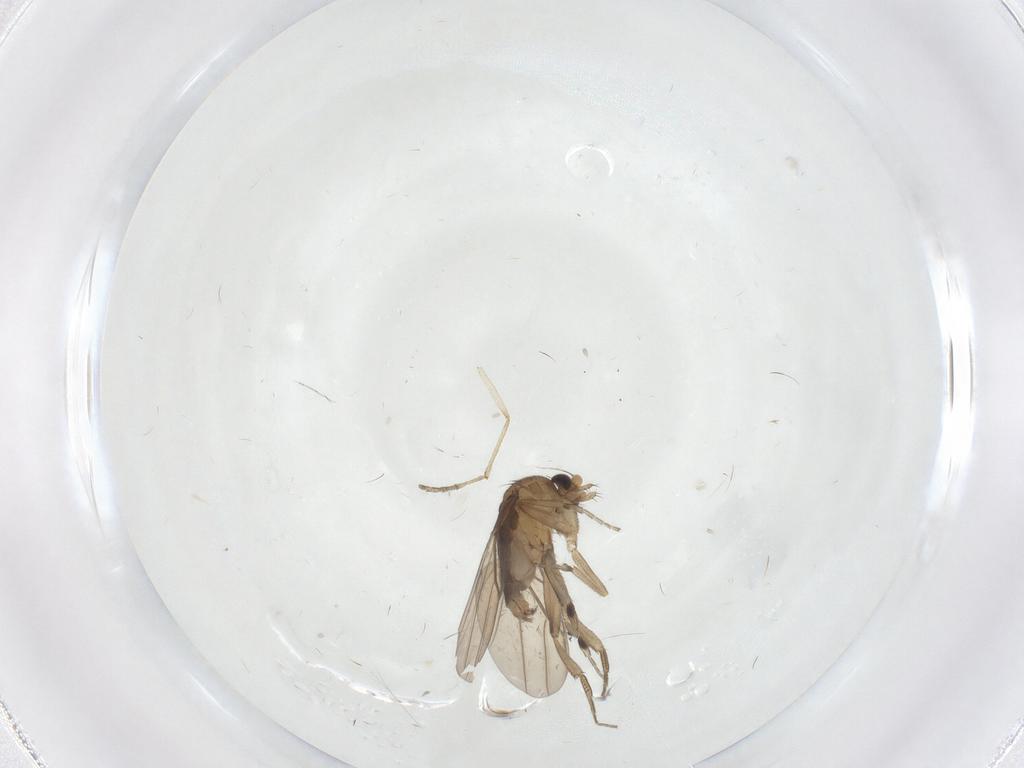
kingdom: Animalia
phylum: Arthropoda
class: Insecta
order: Diptera
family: Phoridae
